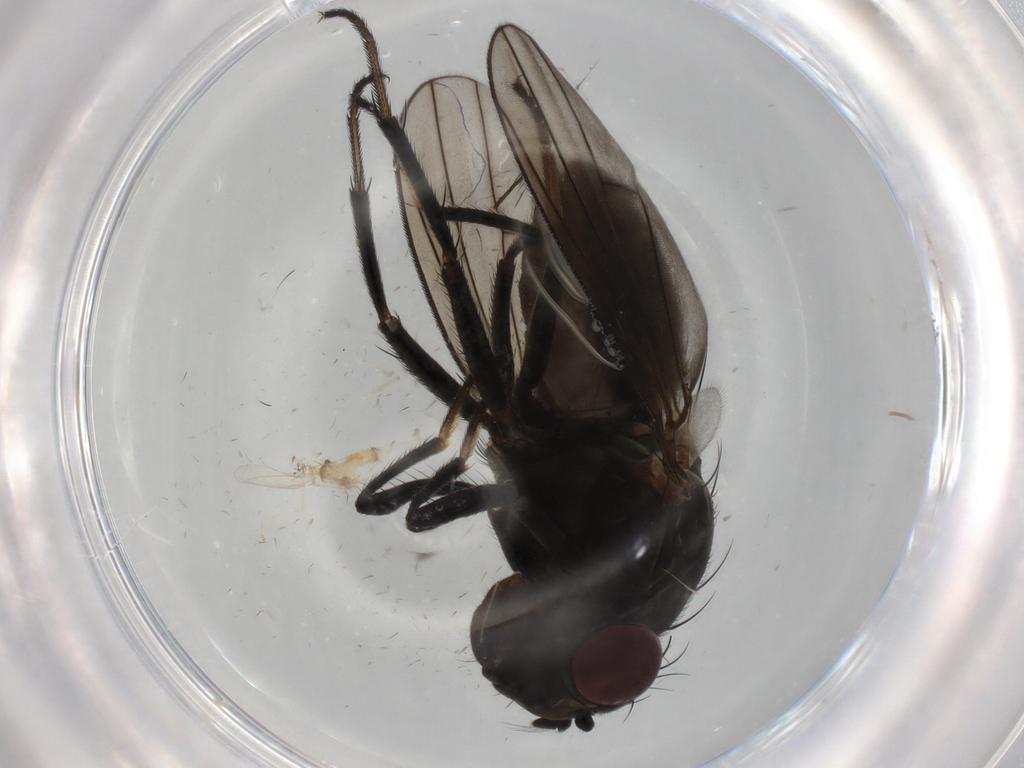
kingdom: Animalia
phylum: Arthropoda
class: Insecta
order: Diptera
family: Ephydridae
